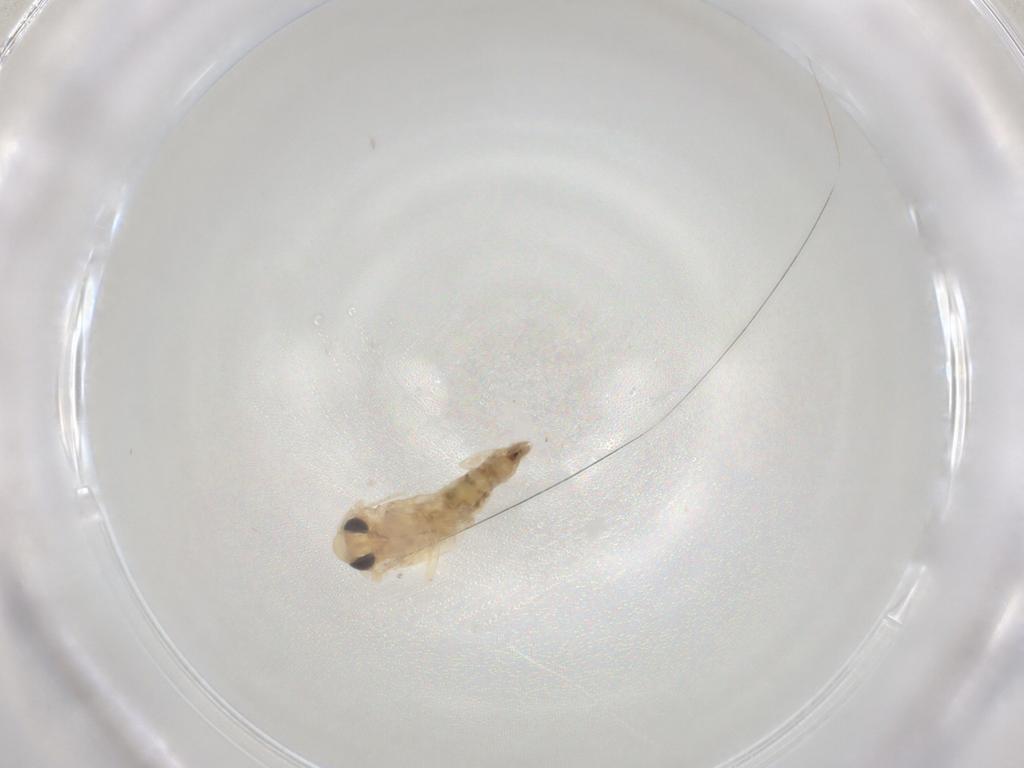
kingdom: Animalia
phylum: Arthropoda
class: Insecta
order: Lepidoptera
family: Lyonetiidae
